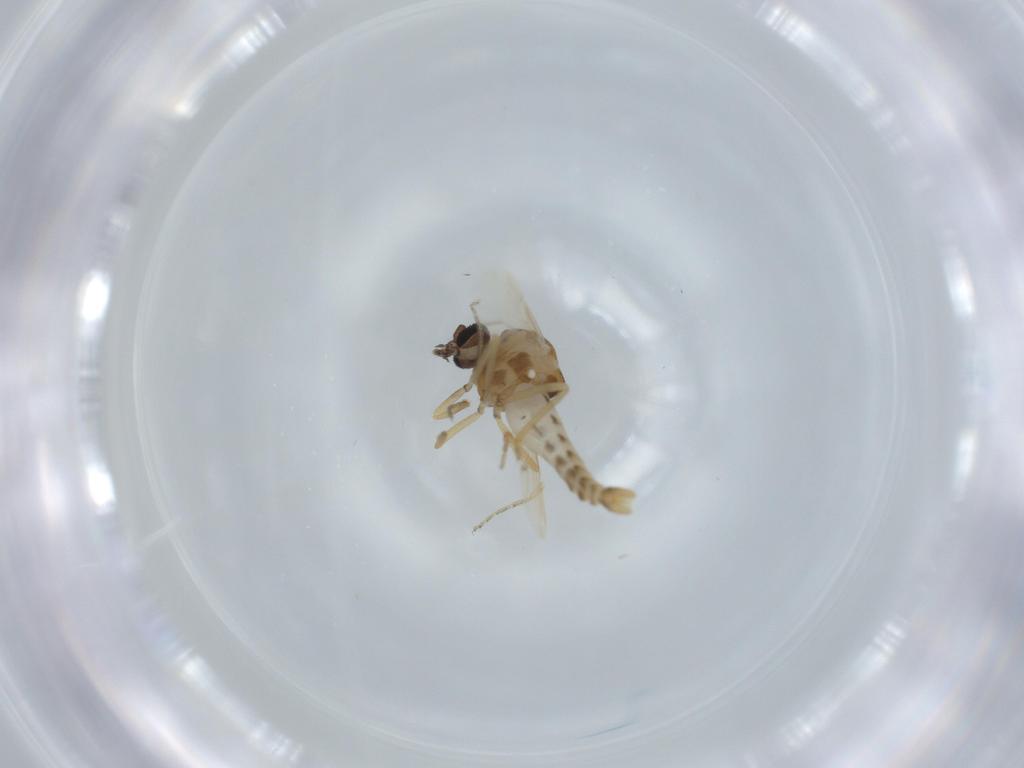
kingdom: Animalia
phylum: Arthropoda
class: Insecta
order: Diptera
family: Ceratopogonidae
